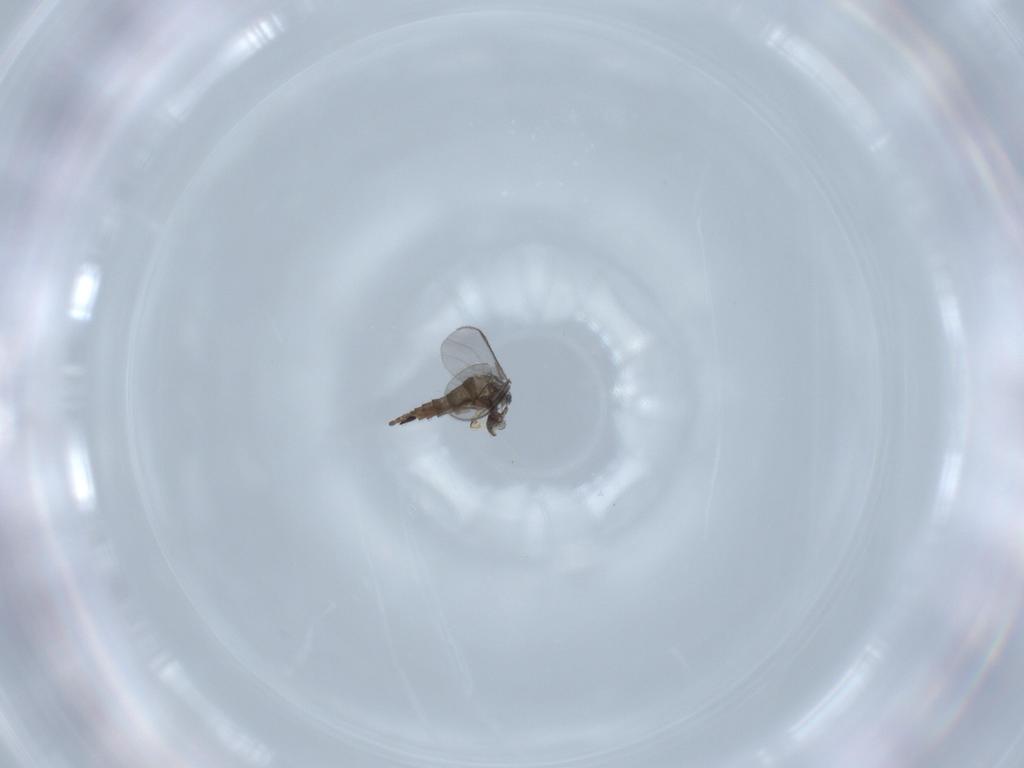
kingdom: Animalia
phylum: Arthropoda
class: Insecta
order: Diptera
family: Sciaridae
